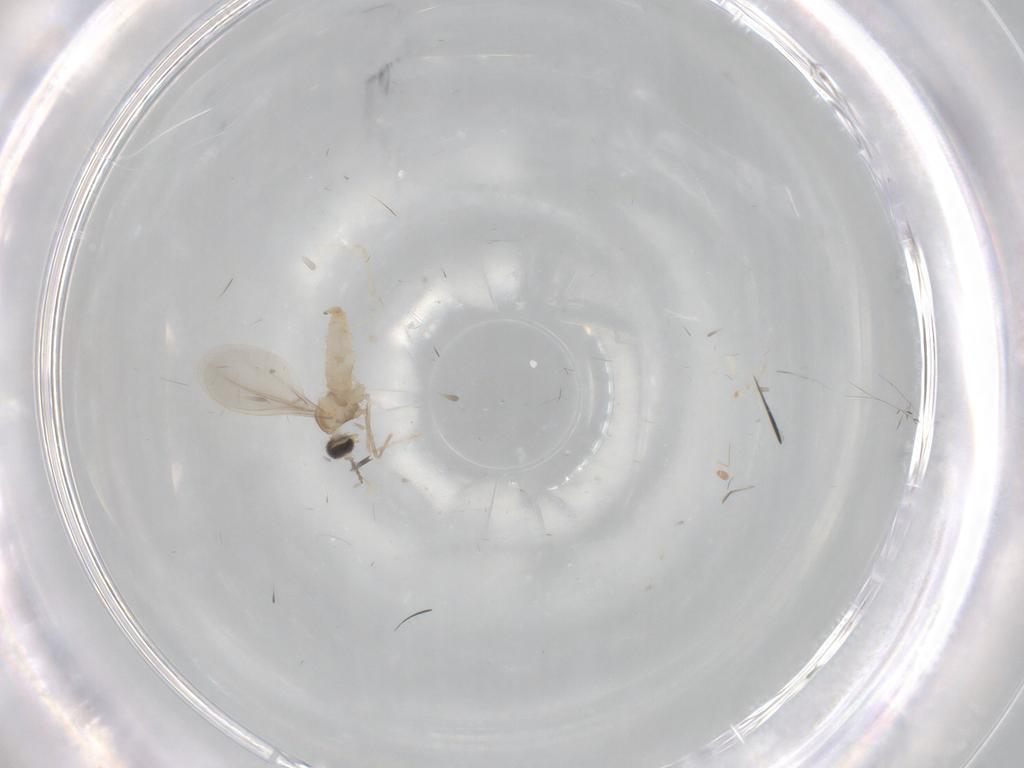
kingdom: Animalia
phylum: Arthropoda
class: Insecta
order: Diptera
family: Cecidomyiidae
